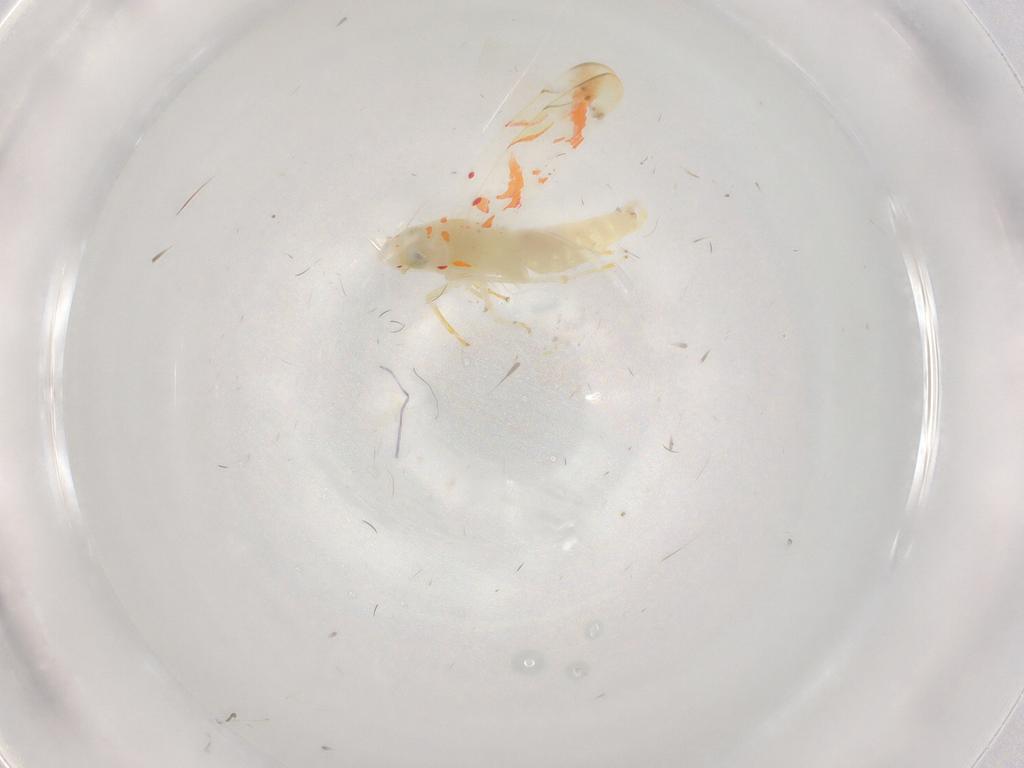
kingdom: Animalia
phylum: Arthropoda
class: Insecta
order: Hemiptera
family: Cicadellidae
